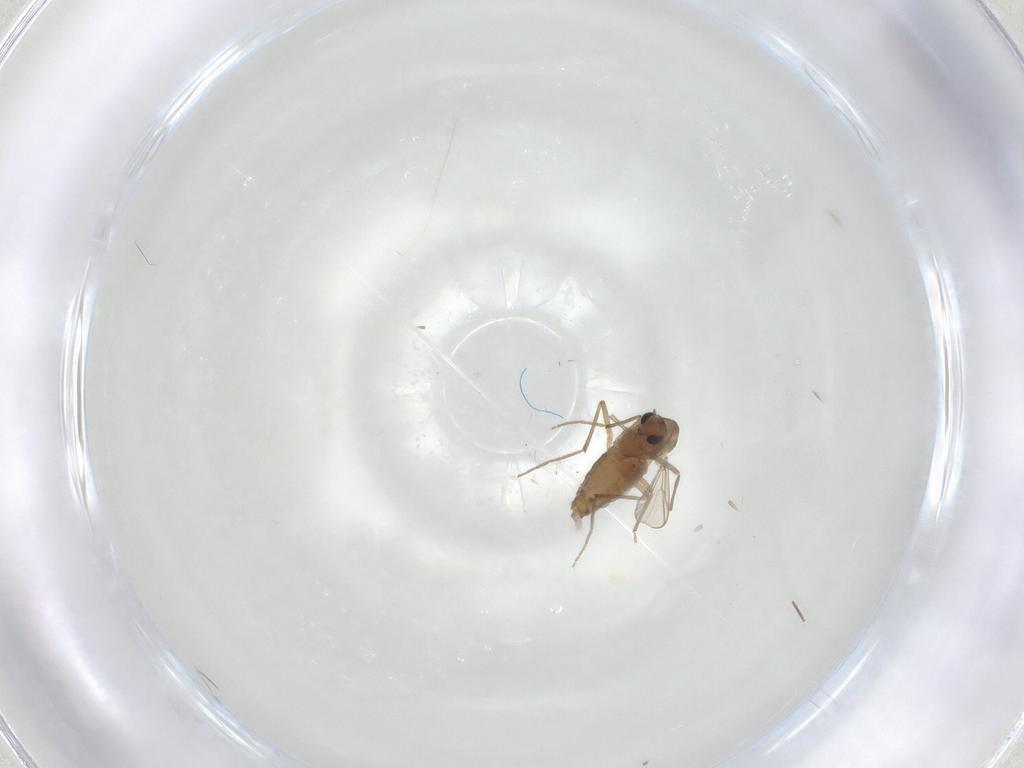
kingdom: Animalia
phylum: Arthropoda
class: Insecta
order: Diptera
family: Chironomidae
